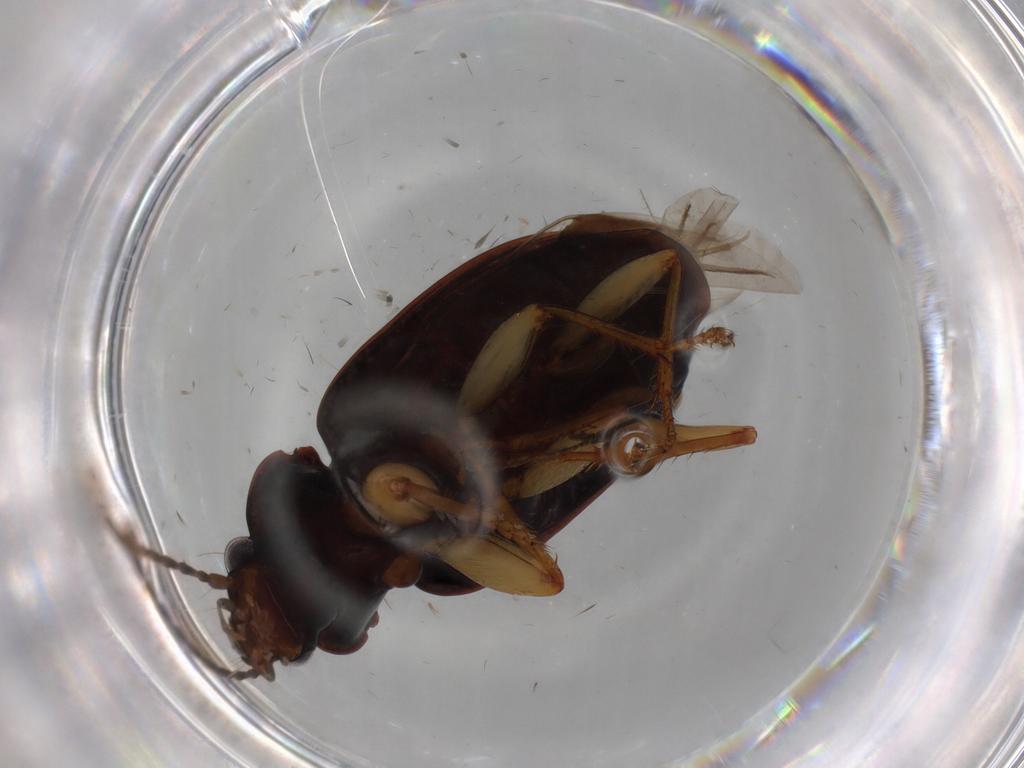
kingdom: Animalia
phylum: Arthropoda
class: Insecta
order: Coleoptera
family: Carabidae
